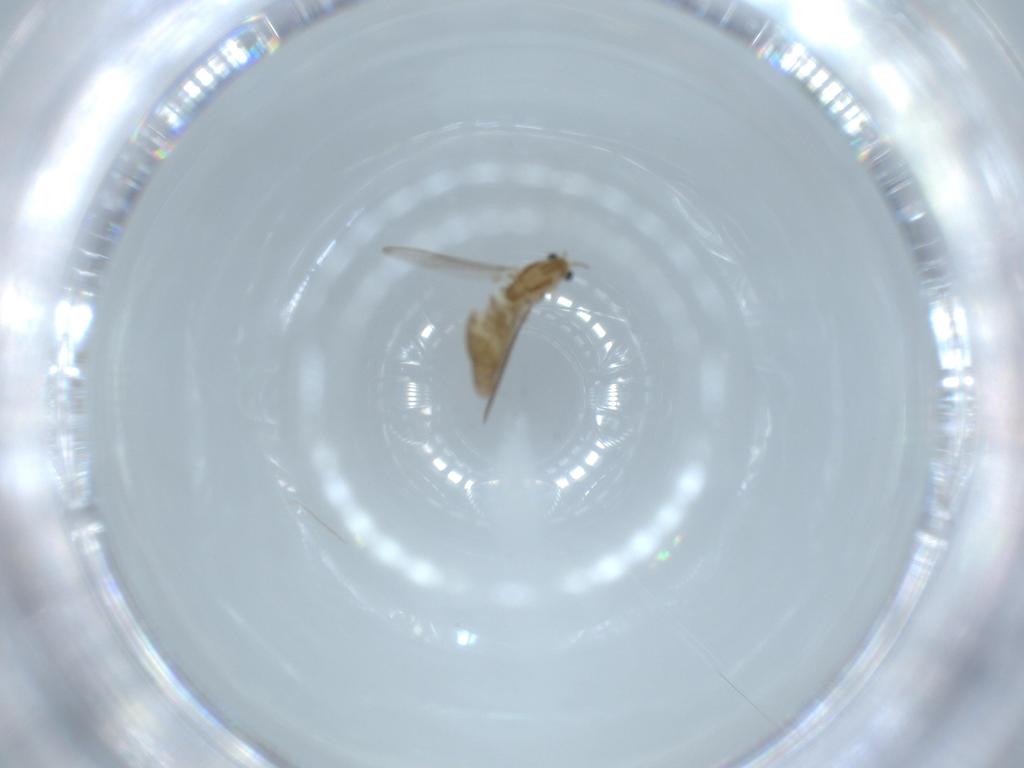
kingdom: Animalia
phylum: Arthropoda
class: Insecta
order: Diptera
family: Chironomidae
